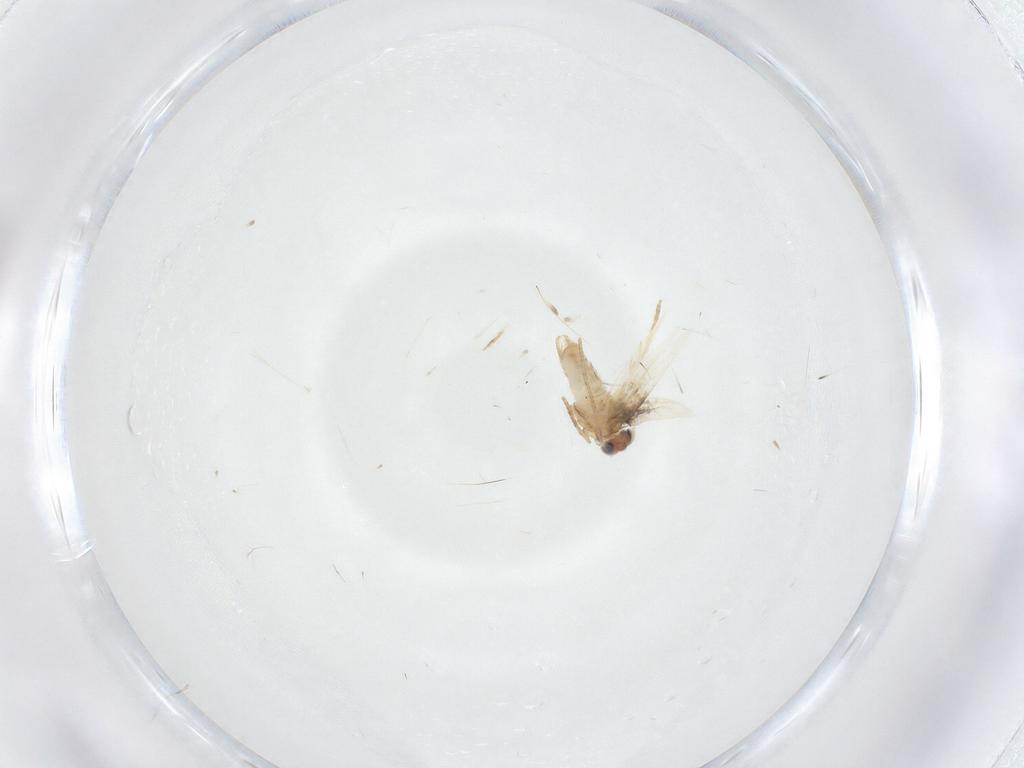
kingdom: Animalia
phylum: Arthropoda
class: Insecta
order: Lepidoptera
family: Nepticulidae
